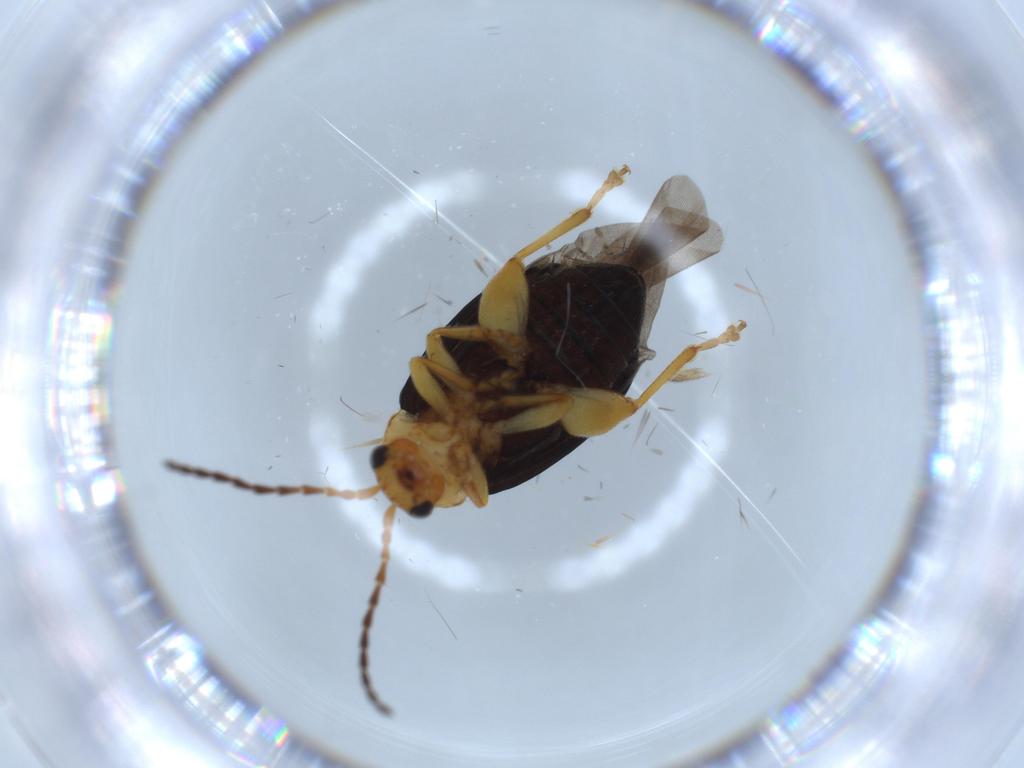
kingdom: Animalia
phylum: Arthropoda
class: Insecta
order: Coleoptera
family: Chrysomelidae
